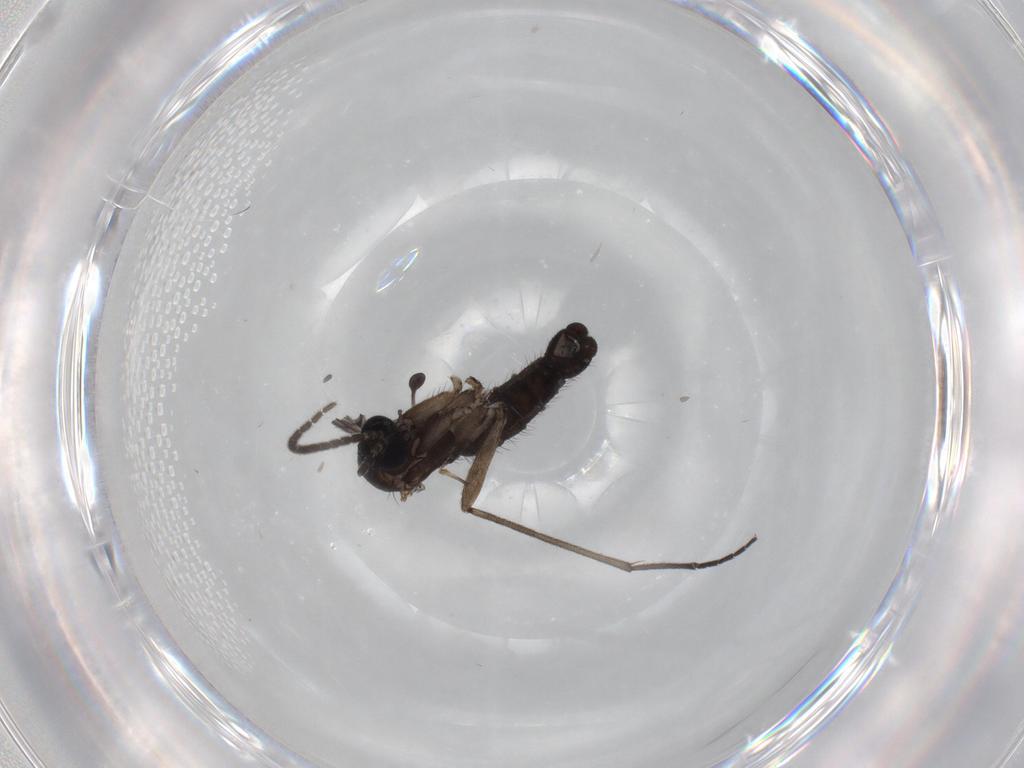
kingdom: Animalia
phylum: Arthropoda
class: Insecta
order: Diptera
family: Sciaridae
